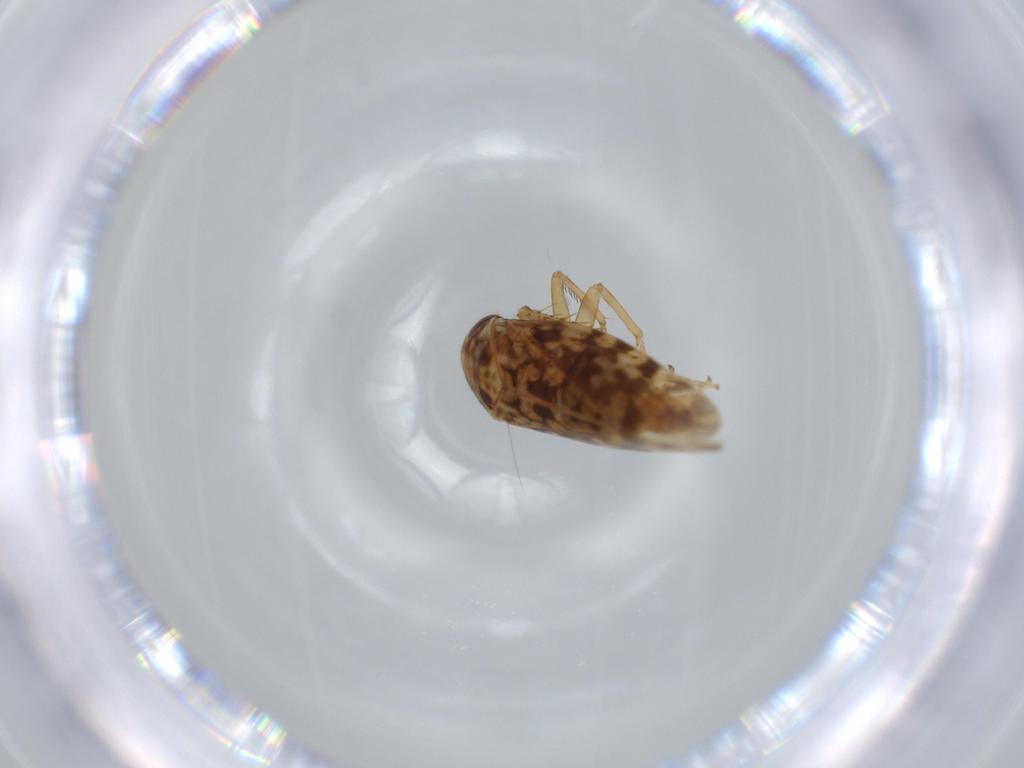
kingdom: Animalia
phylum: Arthropoda
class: Insecta
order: Hemiptera
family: Cicadellidae
